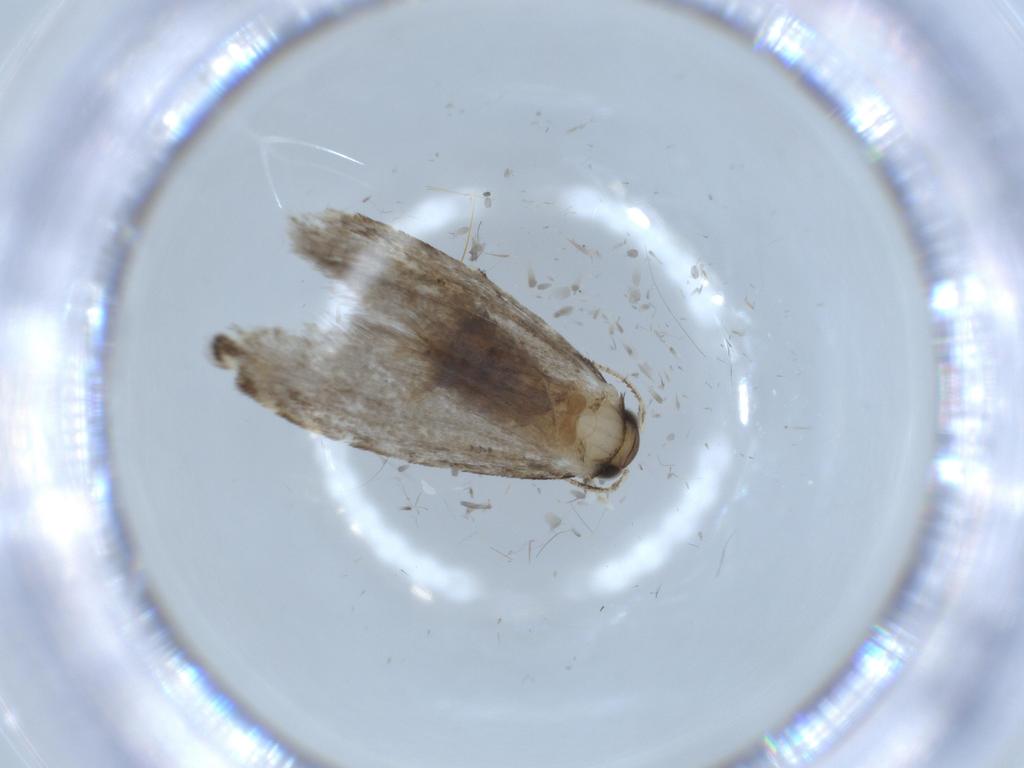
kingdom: Animalia
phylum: Arthropoda
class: Insecta
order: Lepidoptera
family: Tineidae
